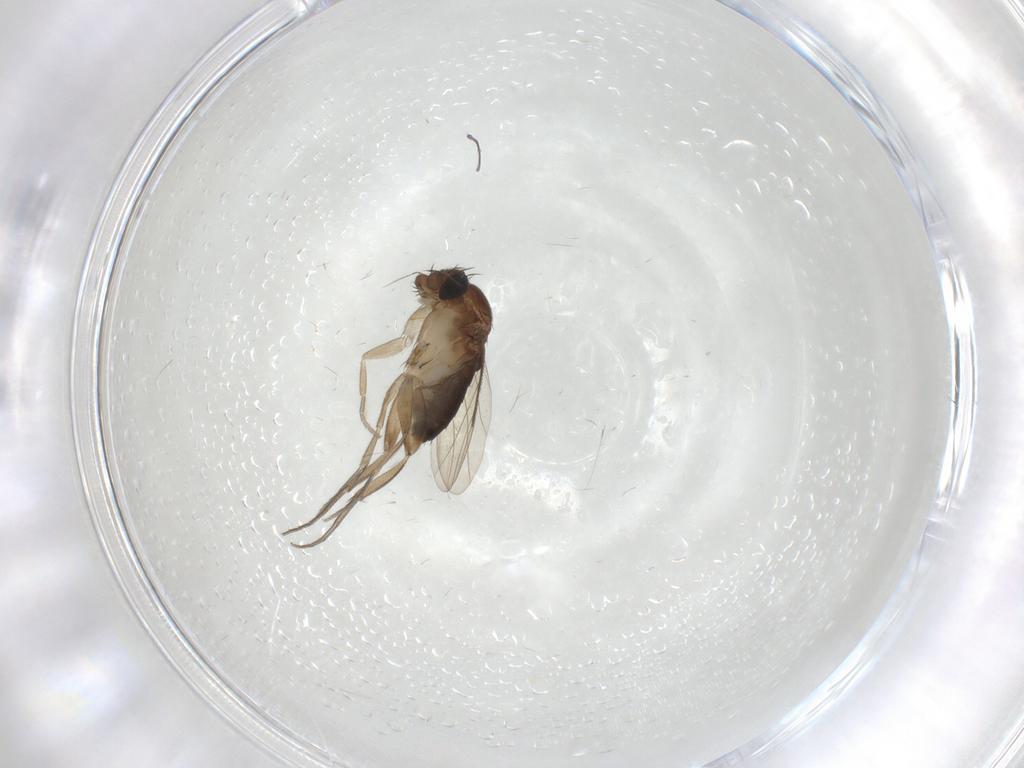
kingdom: Animalia
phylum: Arthropoda
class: Insecta
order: Diptera
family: Phoridae
